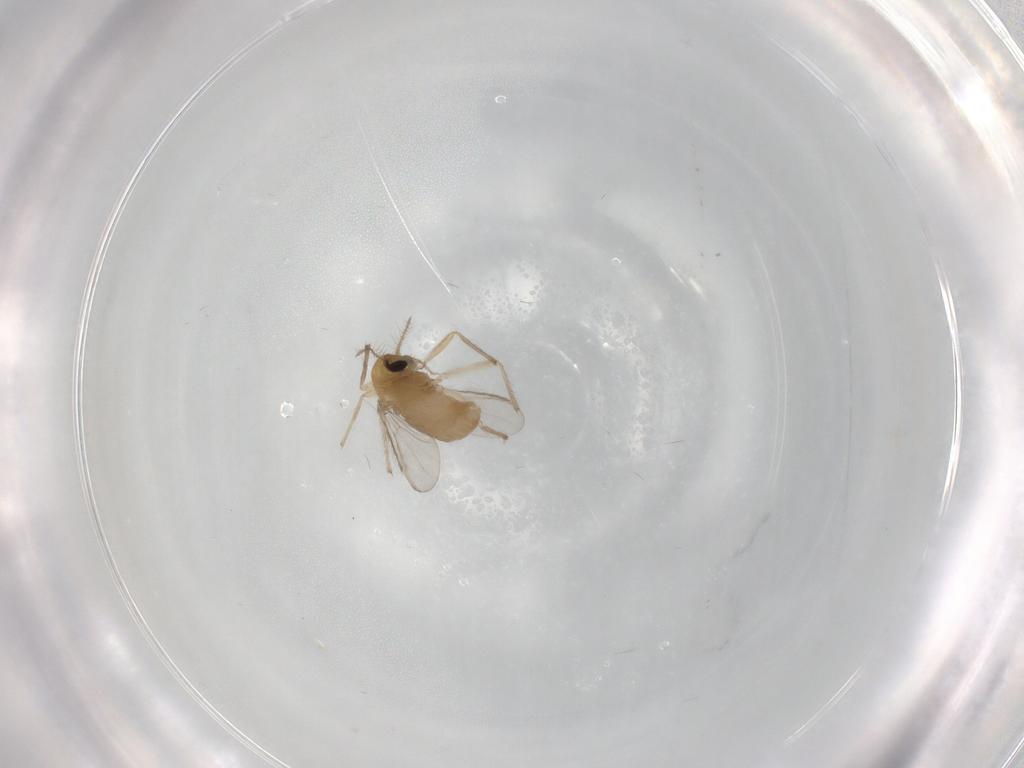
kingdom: Animalia
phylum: Arthropoda
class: Insecta
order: Diptera
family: Chironomidae
